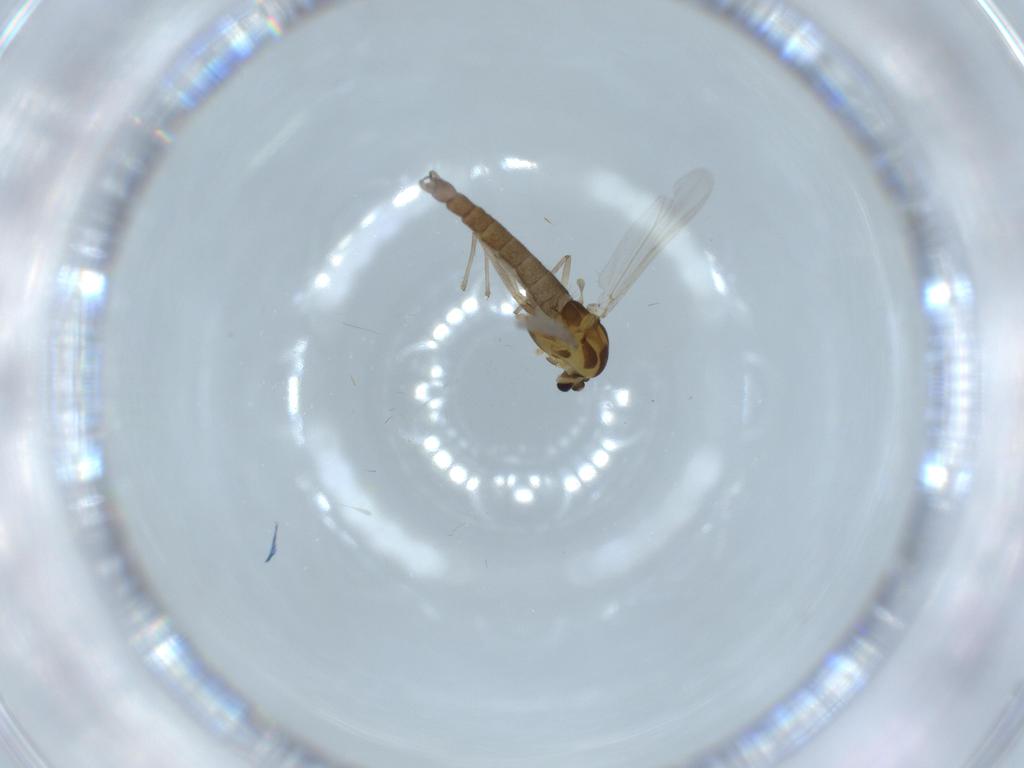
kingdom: Animalia
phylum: Arthropoda
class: Insecta
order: Diptera
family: Chironomidae
